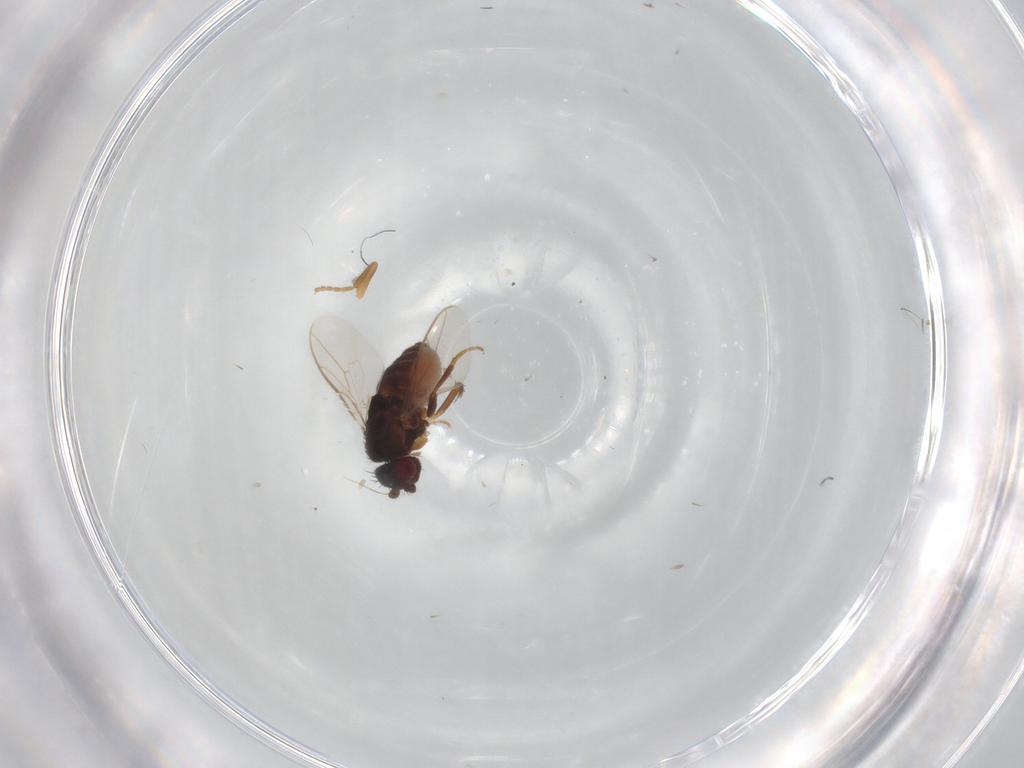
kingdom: Animalia
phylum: Arthropoda
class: Insecta
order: Diptera
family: Sphaeroceridae
